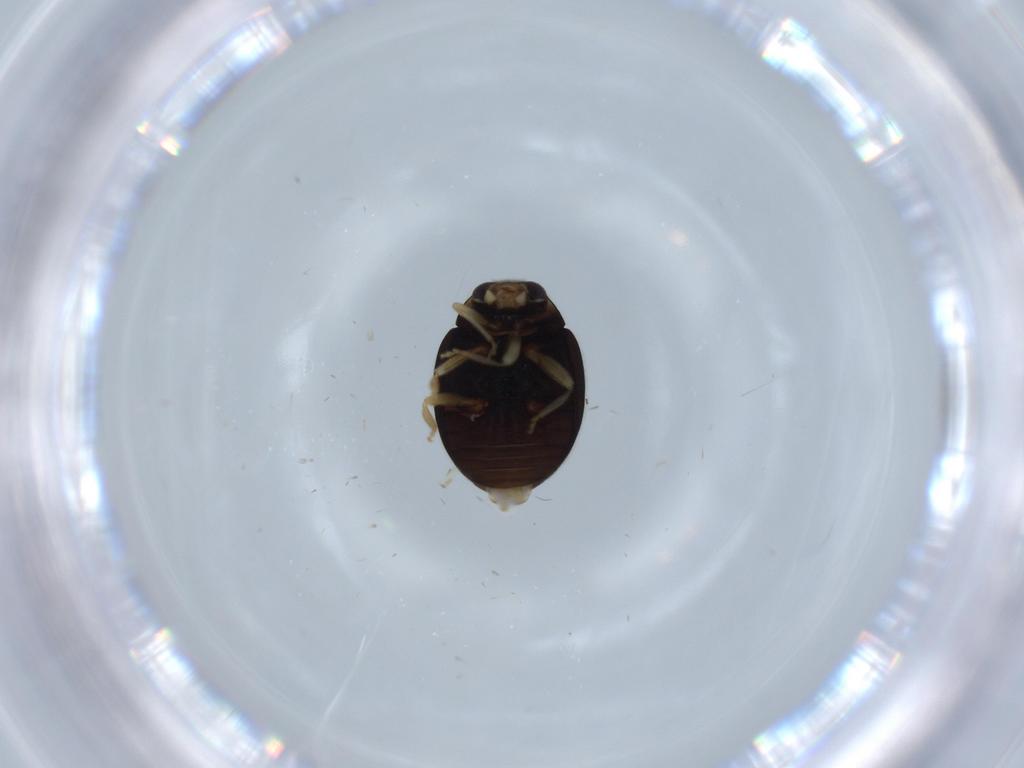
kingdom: Animalia
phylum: Arthropoda
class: Insecta
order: Coleoptera
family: Coccinellidae
